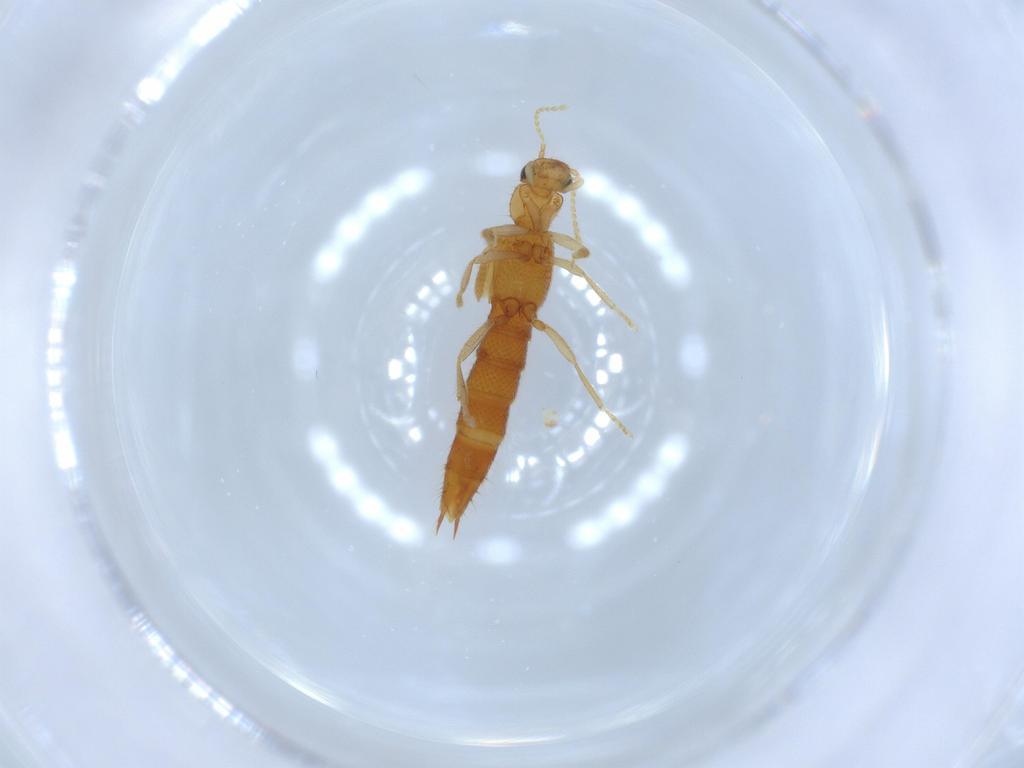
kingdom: Animalia
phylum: Arthropoda
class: Insecta
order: Coleoptera
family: Staphylinidae
